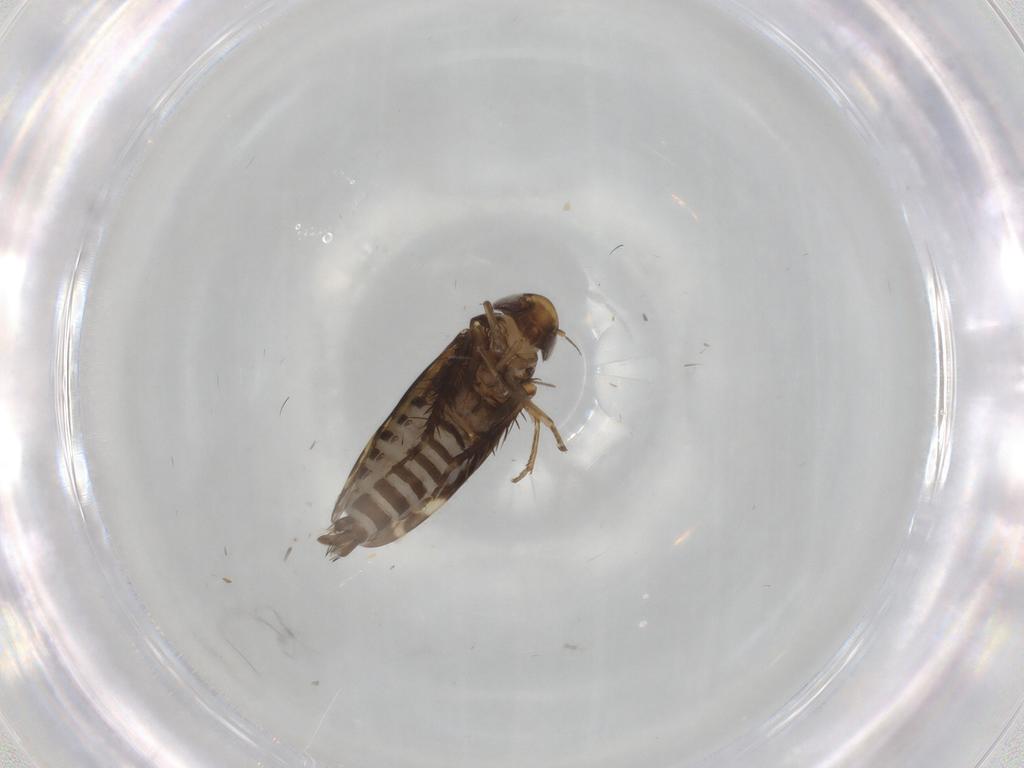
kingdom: Animalia
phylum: Arthropoda
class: Insecta
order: Hemiptera
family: Cicadellidae
